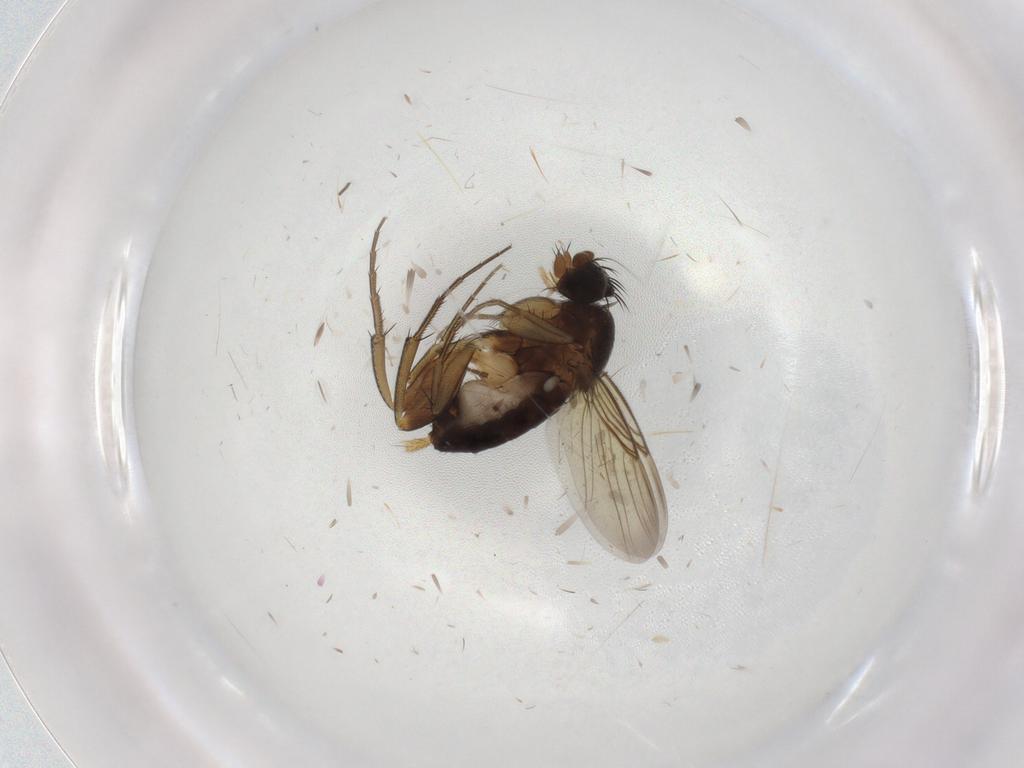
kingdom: Animalia
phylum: Arthropoda
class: Insecta
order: Diptera
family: Phoridae
